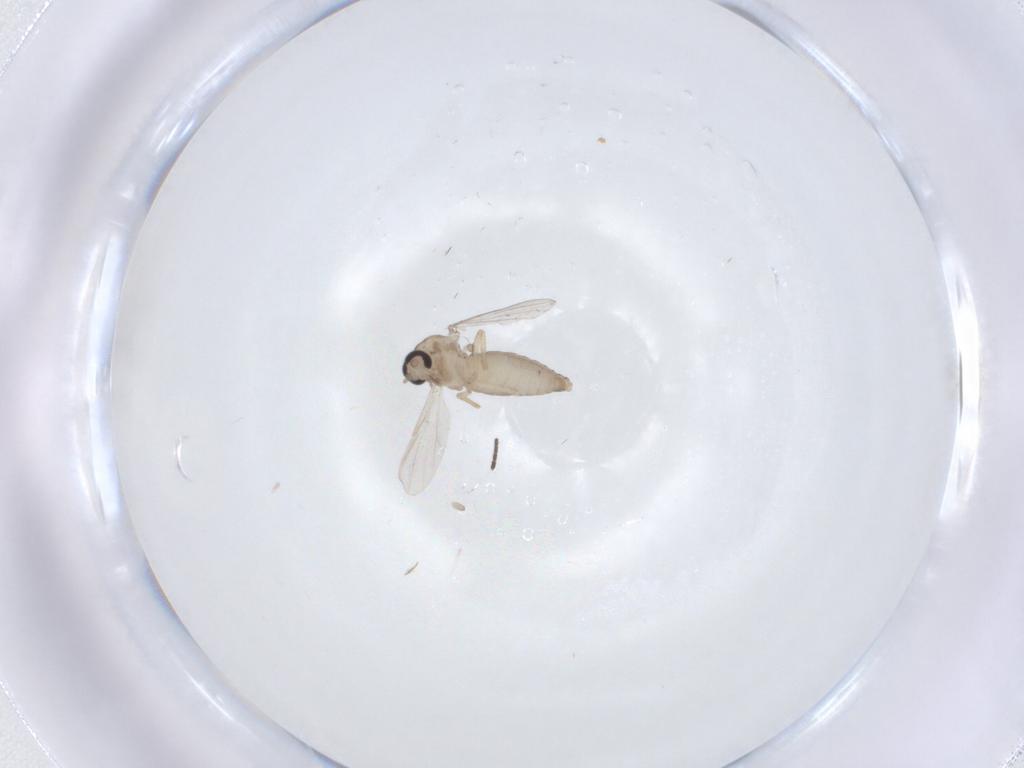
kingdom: Animalia
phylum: Arthropoda
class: Insecta
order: Diptera
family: Ceratopogonidae
